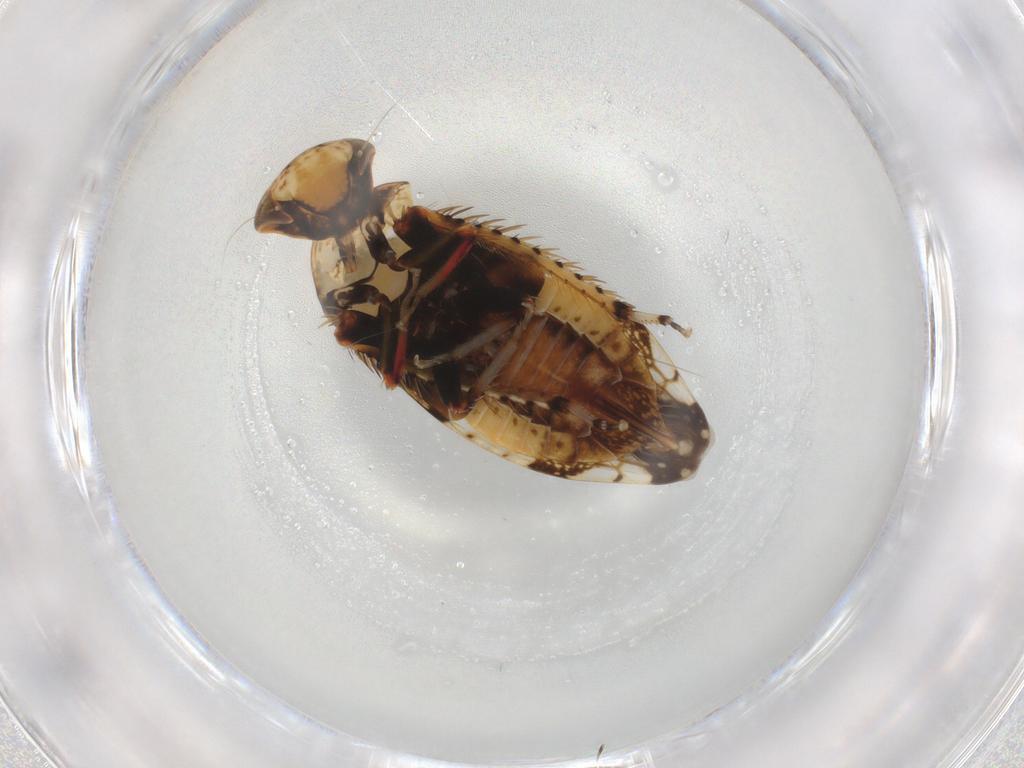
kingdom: Animalia
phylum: Arthropoda
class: Insecta
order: Hemiptera
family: Cicadellidae
